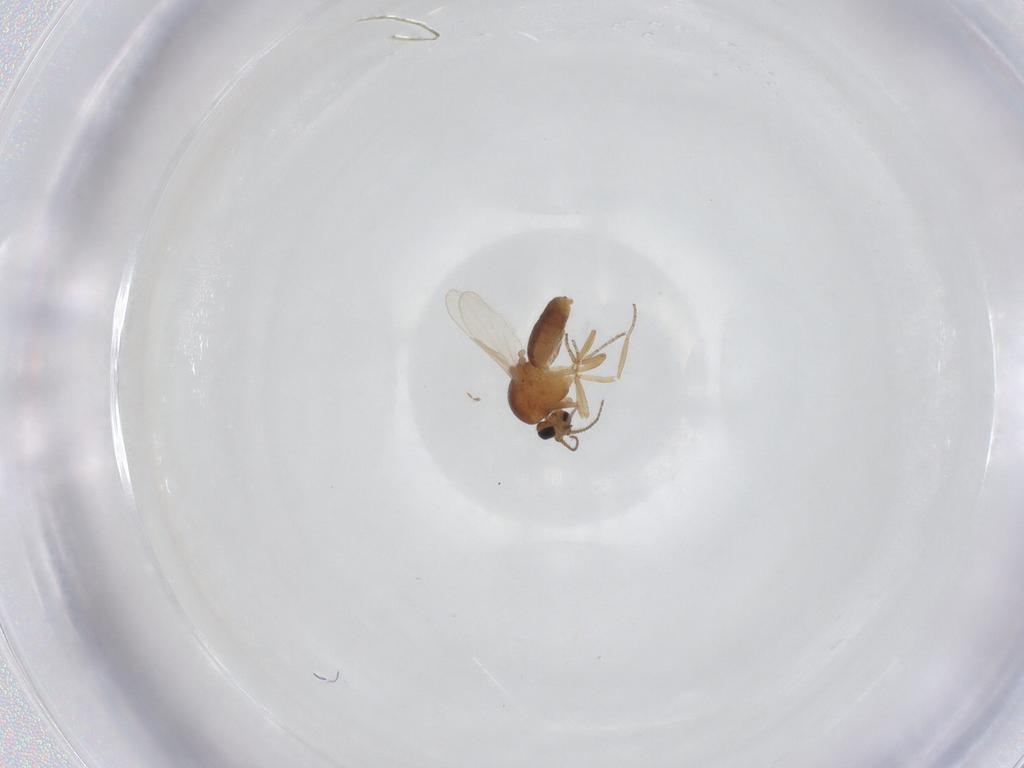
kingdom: Animalia
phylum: Arthropoda
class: Insecta
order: Diptera
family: Ceratopogonidae
